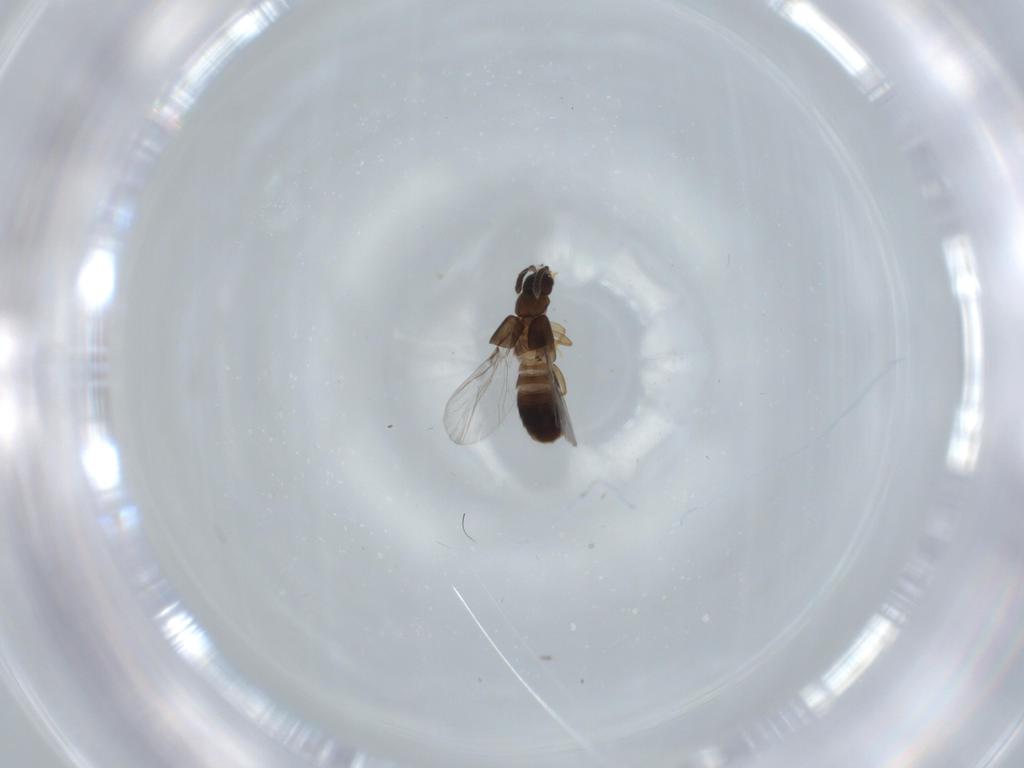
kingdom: Animalia
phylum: Arthropoda
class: Insecta
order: Coleoptera
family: Staphylinidae
